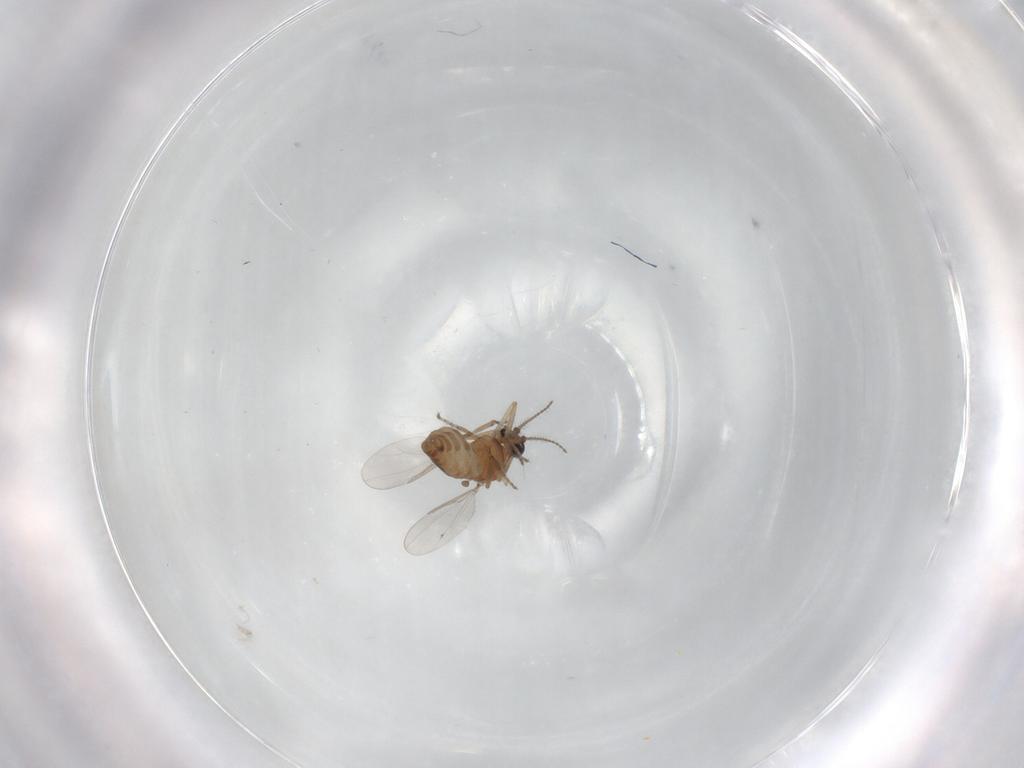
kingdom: Animalia
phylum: Arthropoda
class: Insecta
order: Diptera
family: Ceratopogonidae
